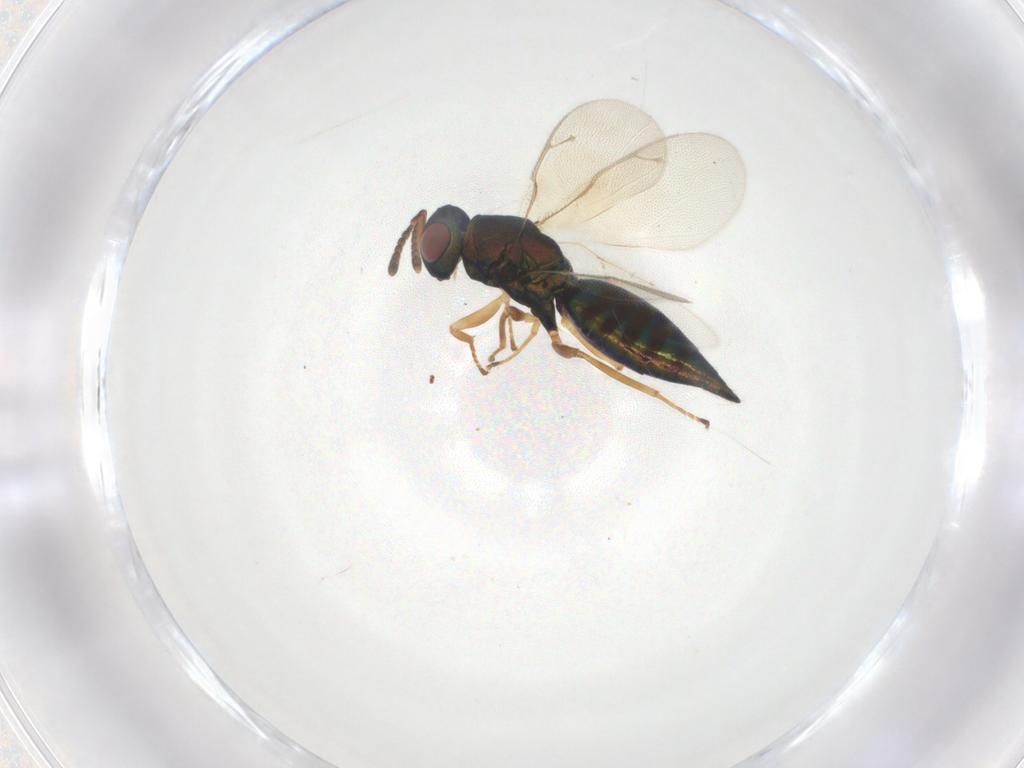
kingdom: Animalia
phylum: Arthropoda
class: Insecta
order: Hymenoptera
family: Pteromalidae
